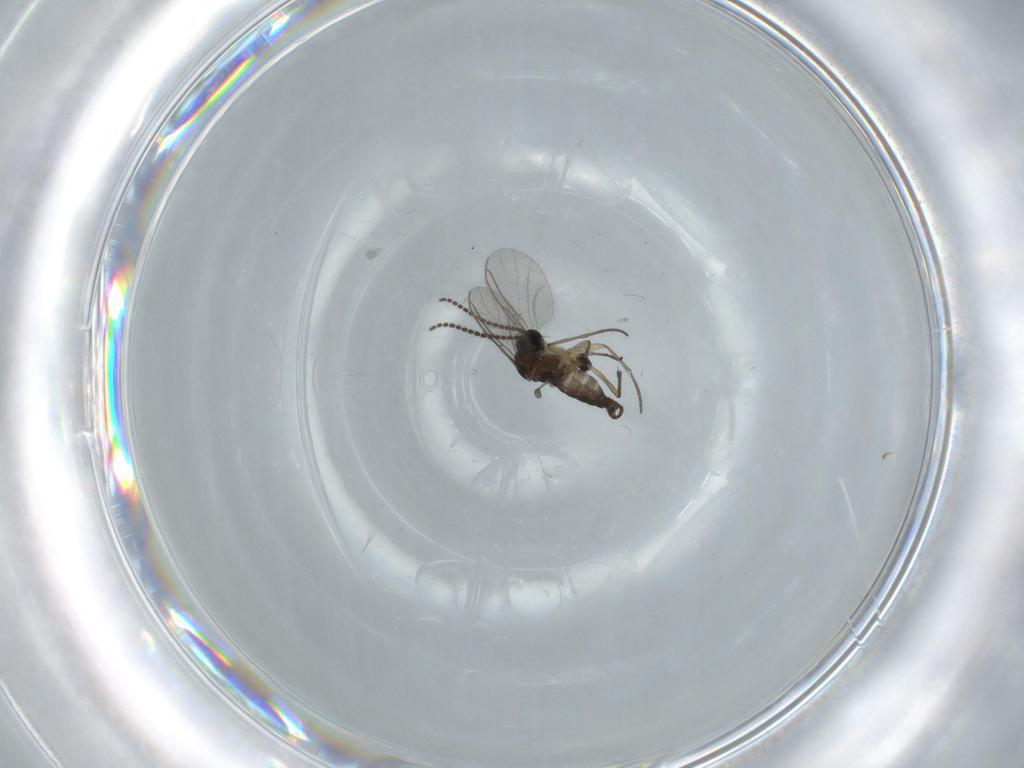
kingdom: Animalia
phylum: Arthropoda
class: Insecta
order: Diptera
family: Sciaridae
